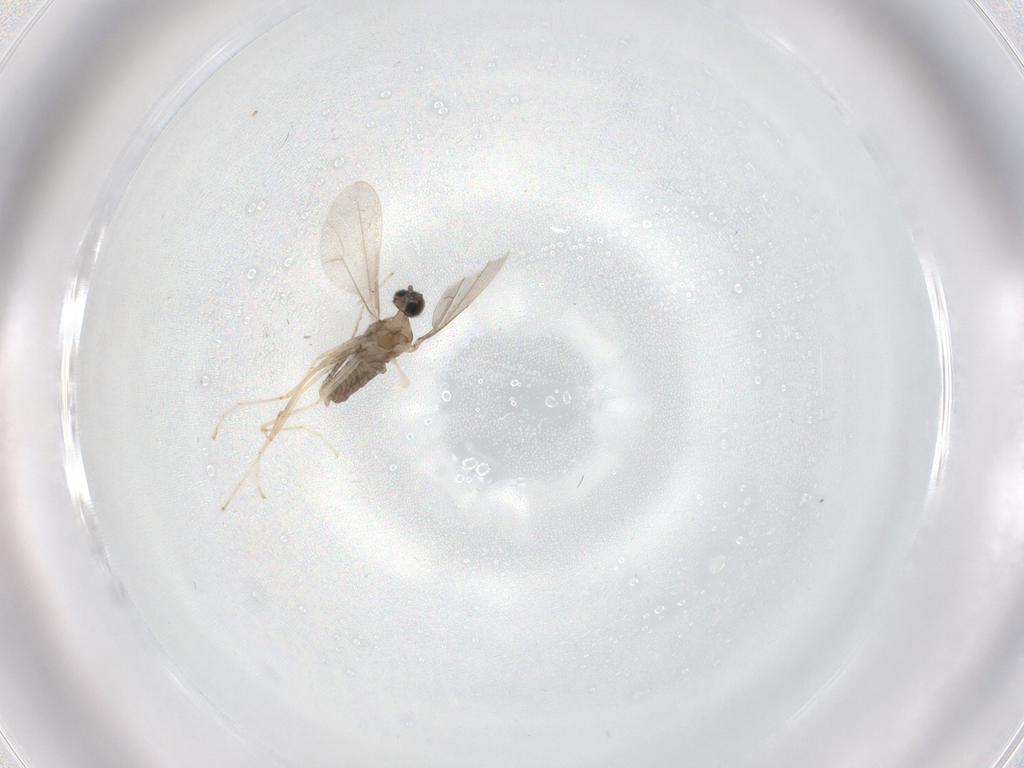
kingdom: Animalia
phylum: Arthropoda
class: Insecta
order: Diptera
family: Cecidomyiidae
